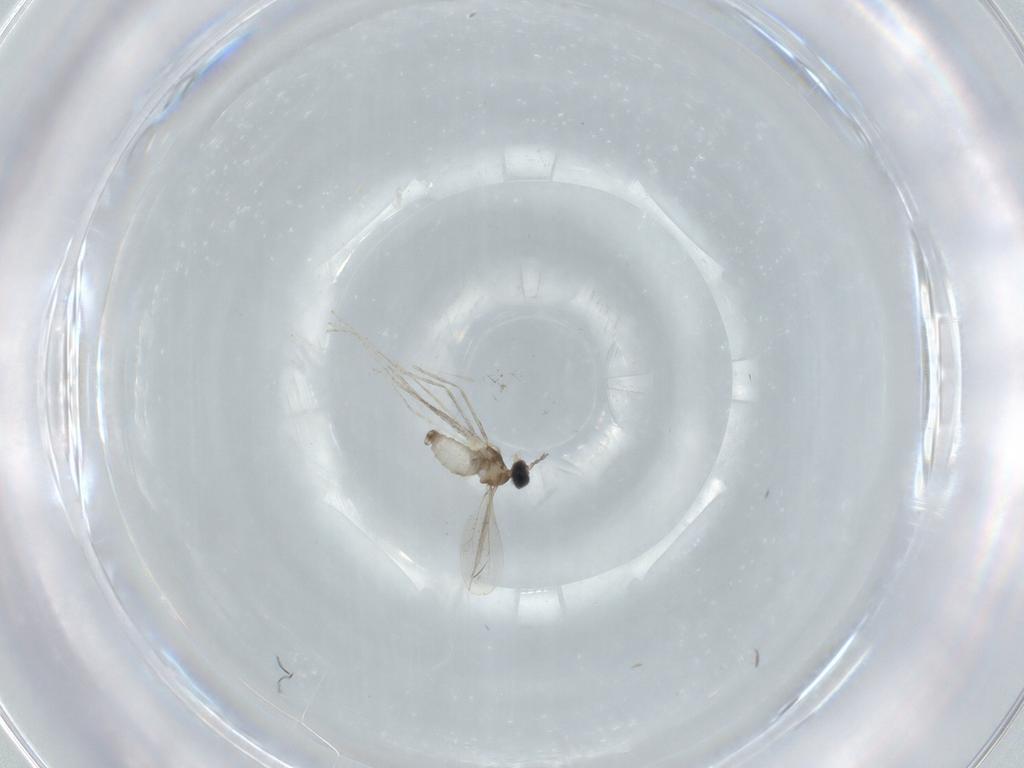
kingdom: Animalia
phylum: Arthropoda
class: Insecta
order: Diptera
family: Cecidomyiidae
